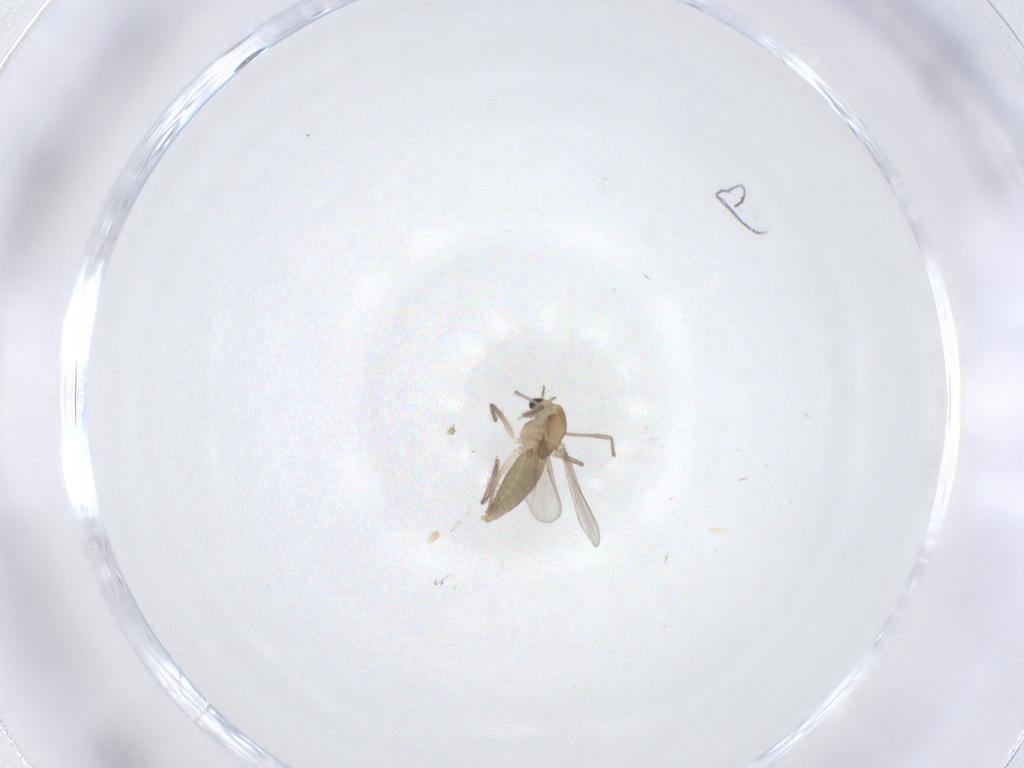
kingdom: Animalia
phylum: Arthropoda
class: Insecta
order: Diptera
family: Chironomidae
